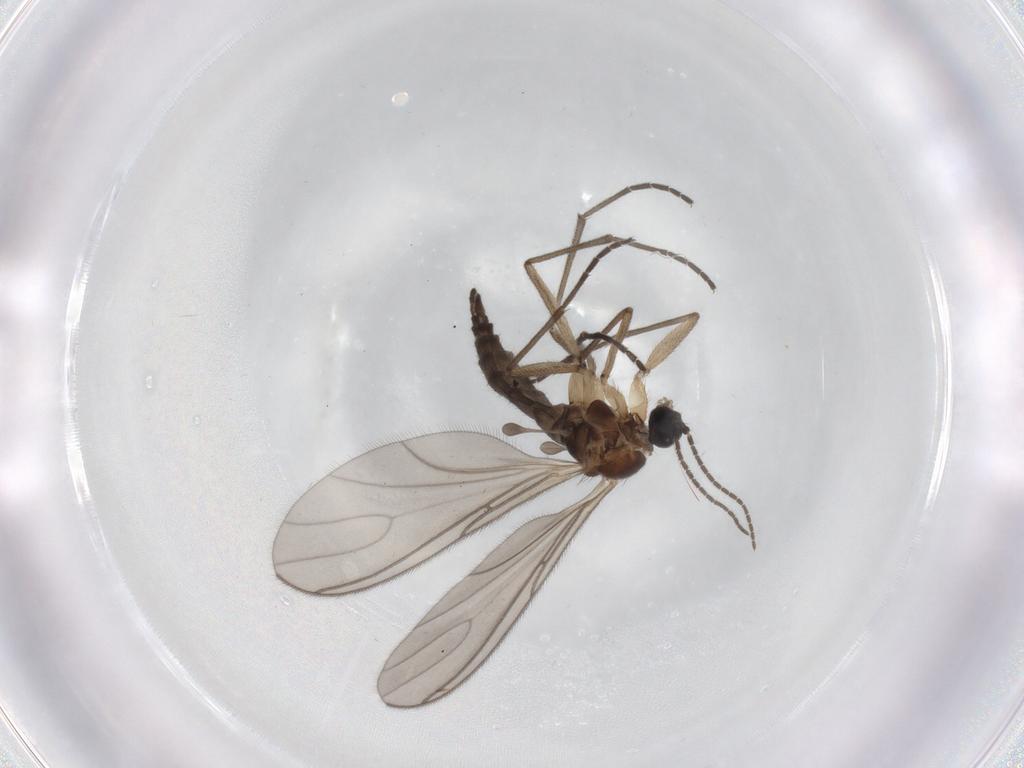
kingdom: Animalia
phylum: Arthropoda
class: Insecta
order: Diptera
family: Sciaridae
